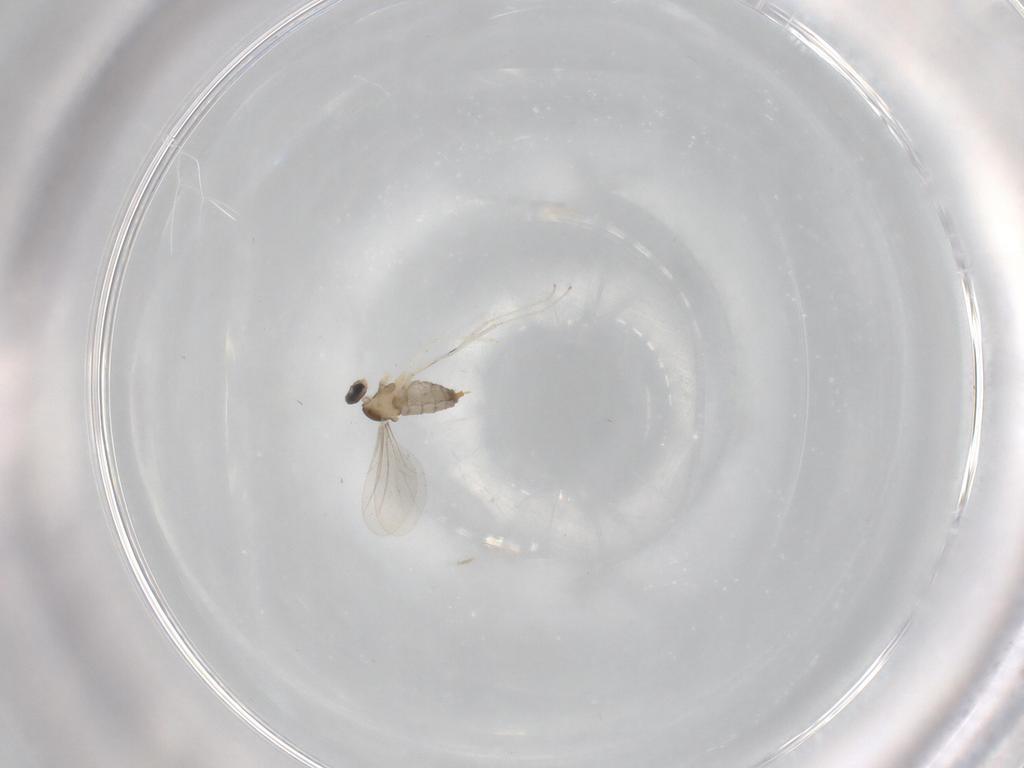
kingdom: Animalia
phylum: Arthropoda
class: Insecta
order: Diptera
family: Cecidomyiidae
